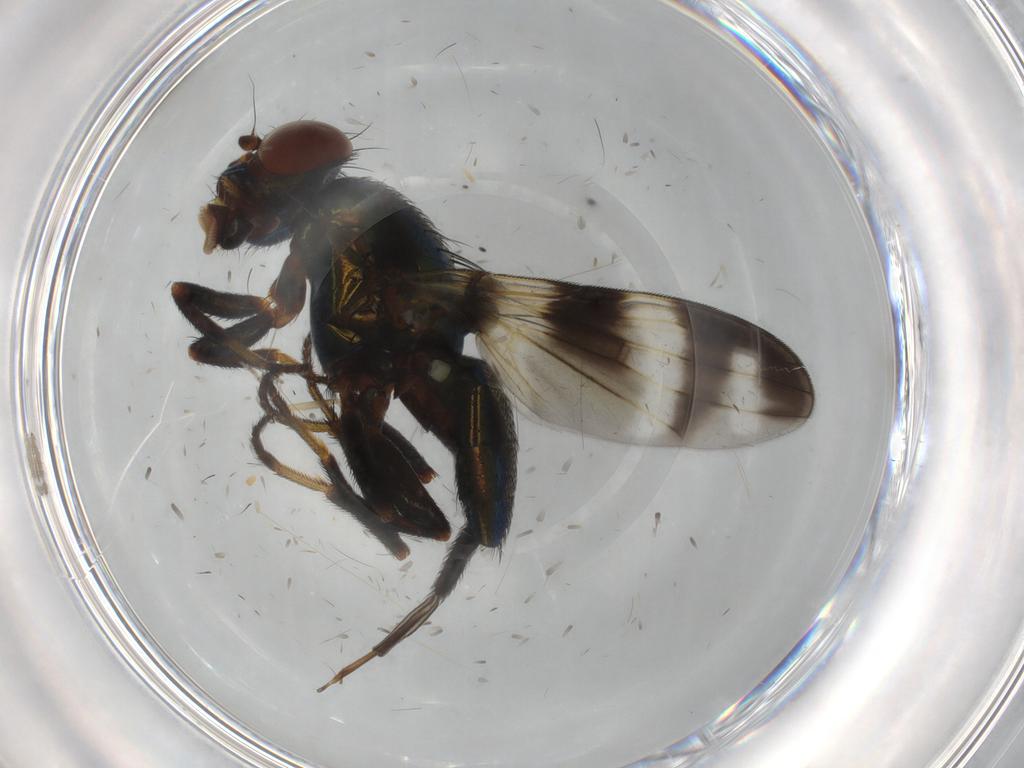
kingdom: Animalia
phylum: Arthropoda
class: Insecta
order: Diptera
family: Ulidiidae
